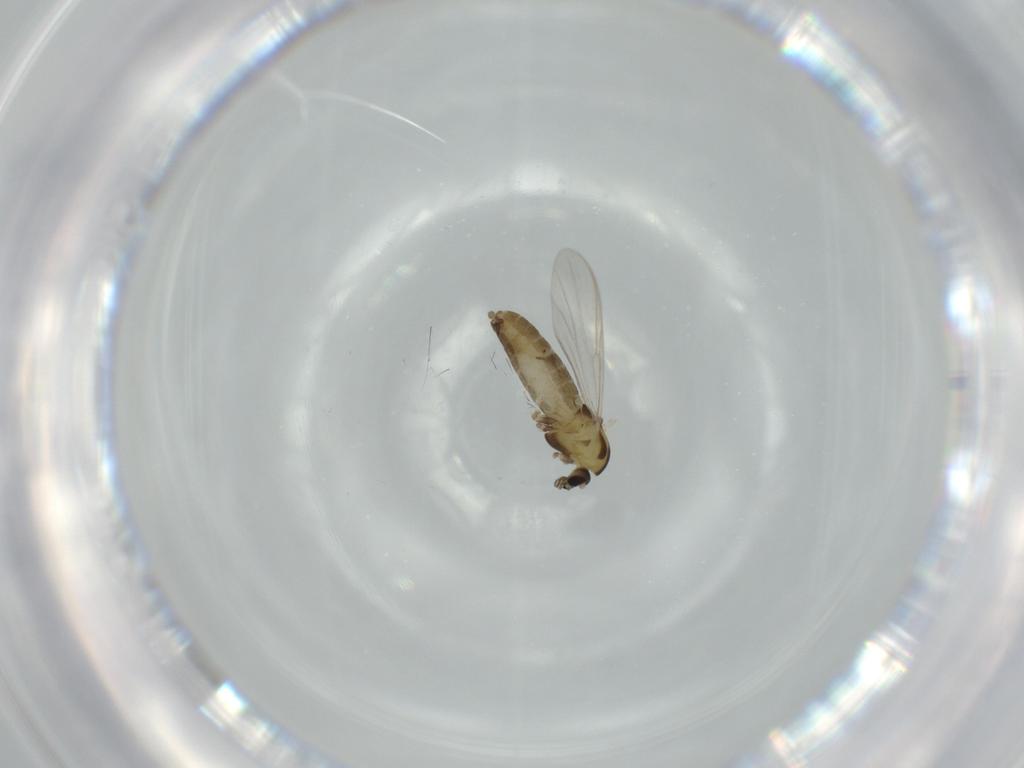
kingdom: Animalia
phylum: Arthropoda
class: Insecta
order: Diptera
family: Chironomidae
